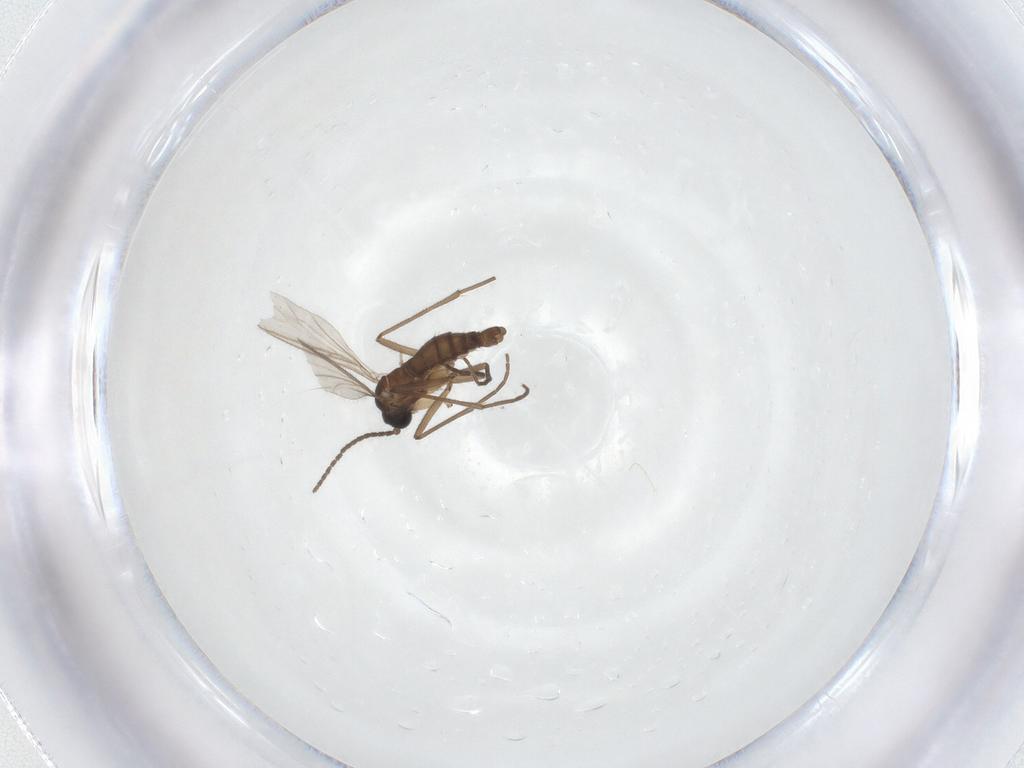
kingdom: Animalia
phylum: Arthropoda
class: Insecta
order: Diptera
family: Sciaridae
